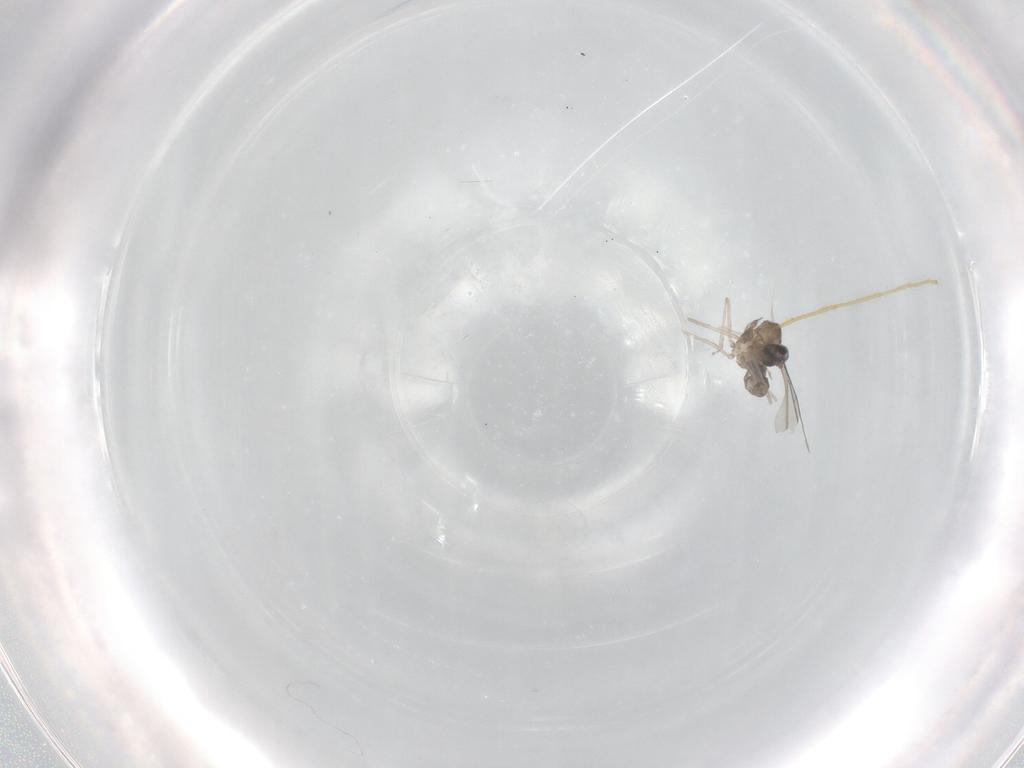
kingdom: Animalia
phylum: Arthropoda
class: Insecta
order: Diptera
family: Cecidomyiidae
